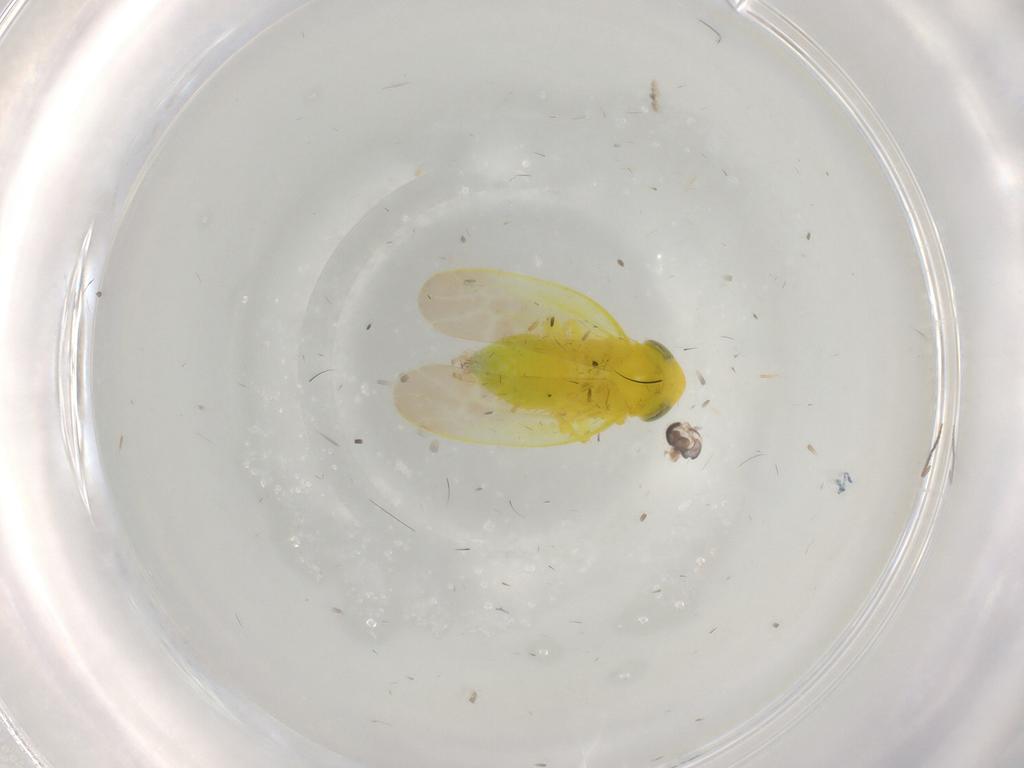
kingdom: Animalia
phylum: Arthropoda
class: Insecta
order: Hemiptera
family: Cicadellidae
